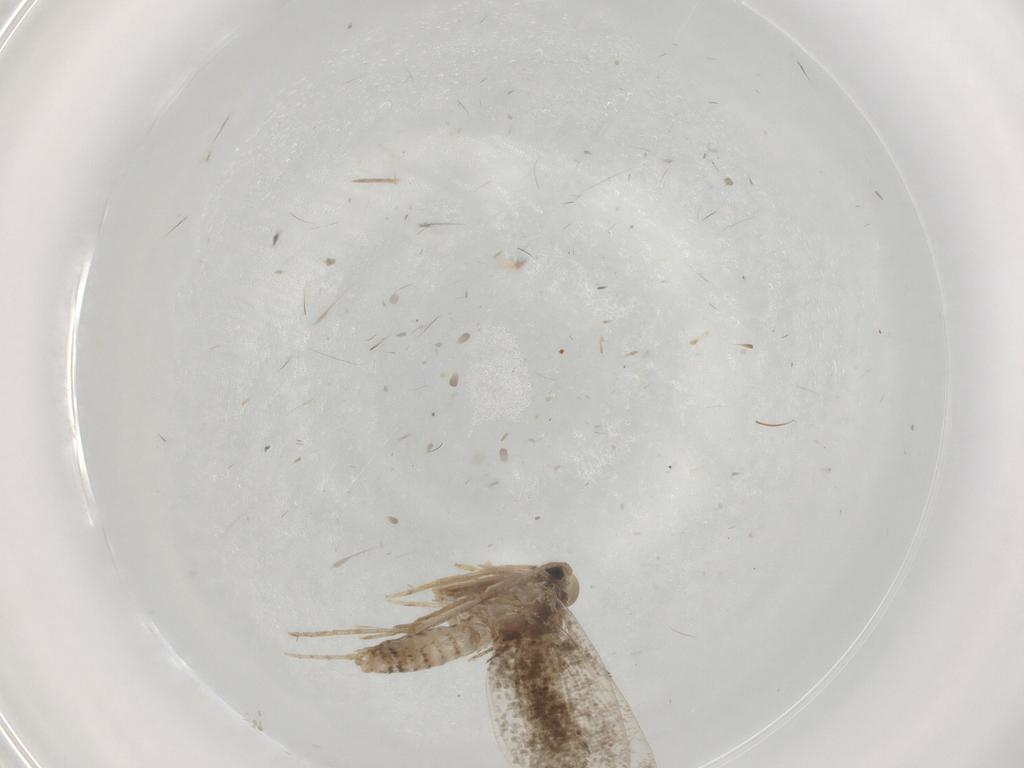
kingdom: Animalia
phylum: Arthropoda
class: Insecta
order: Lepidoptera
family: Psychidae
